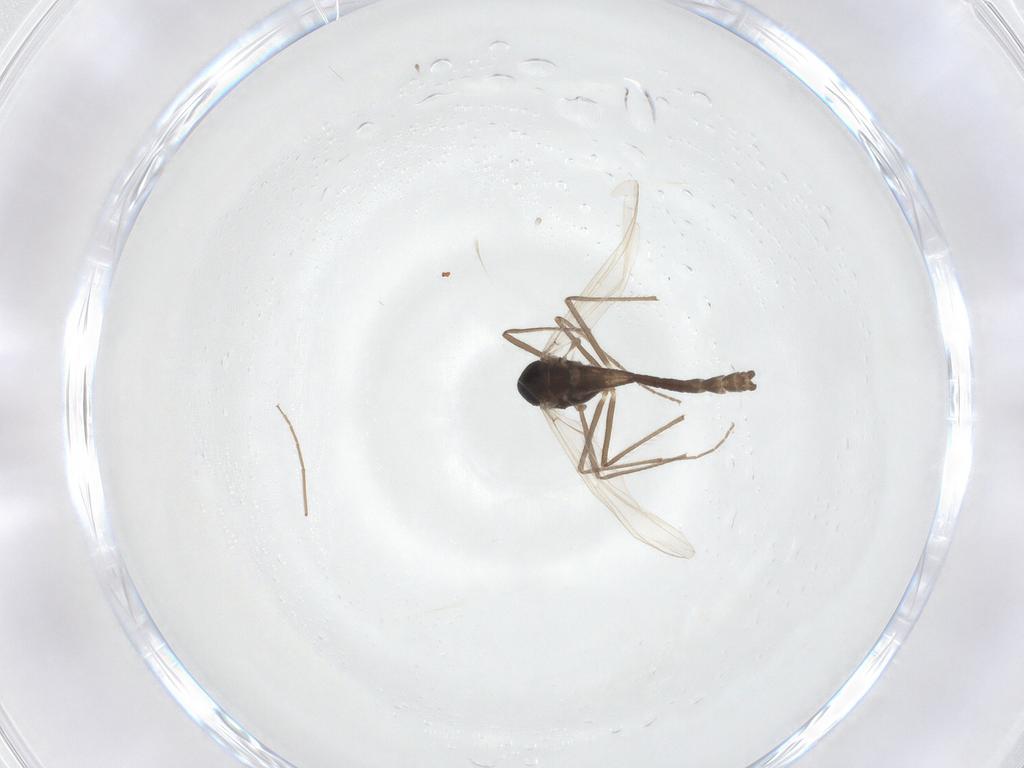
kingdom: Animalia
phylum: Arthropoda
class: Insecta
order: Diptera
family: Chironomidae
